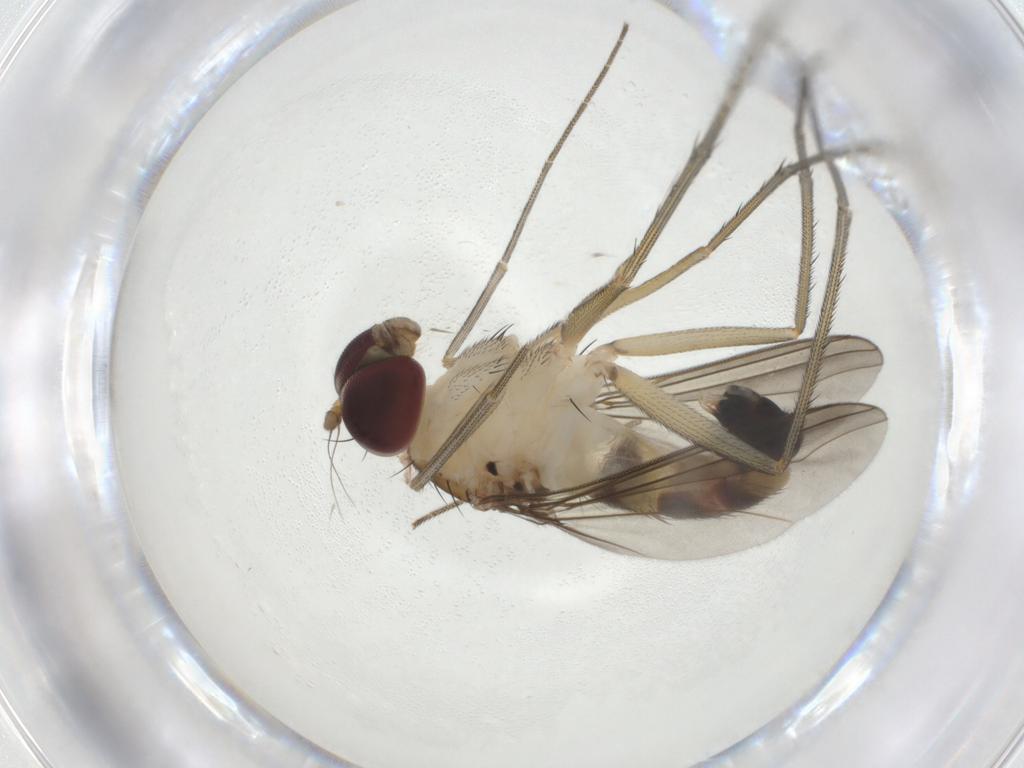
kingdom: Animalia
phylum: Arthropoda
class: Insecta
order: Diptera
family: Dolichopodidae
